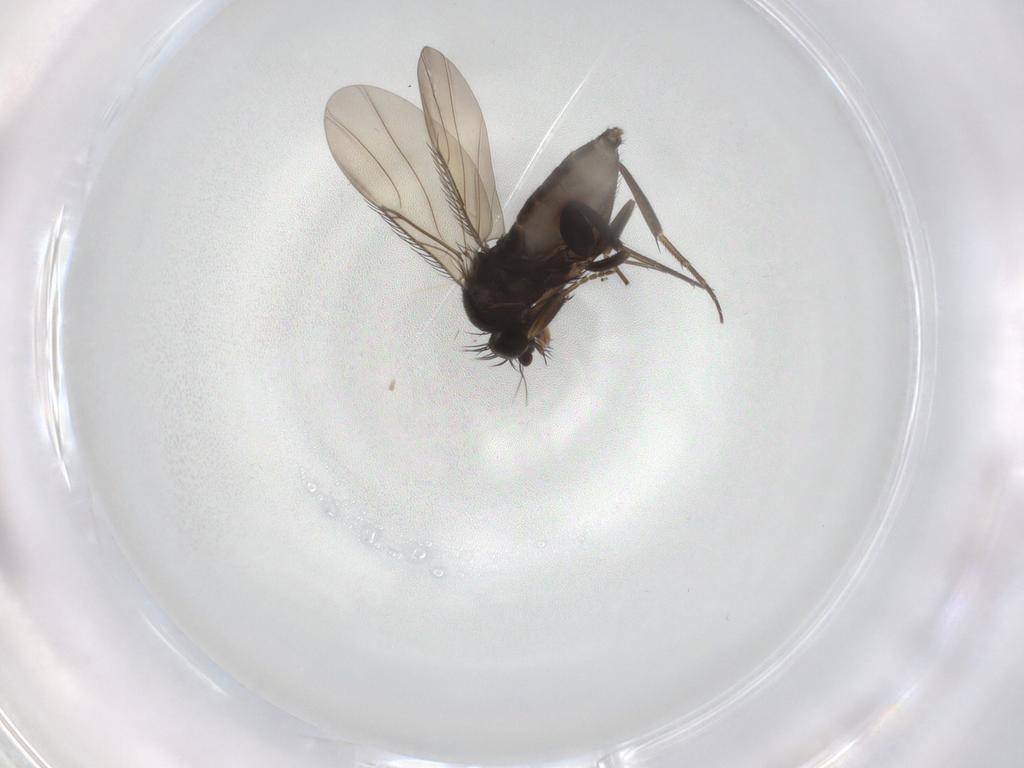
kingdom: Animalia
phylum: Arthropoda
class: Insecta
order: Diptera
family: Phoridae
